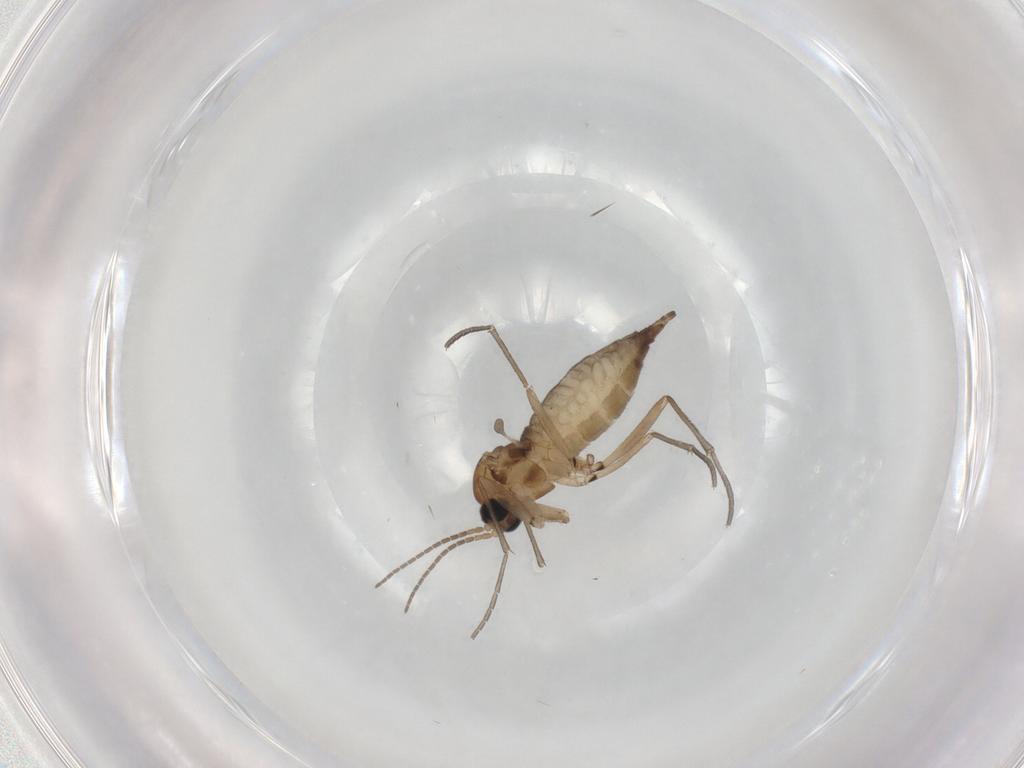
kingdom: Animalia
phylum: Arthropoda
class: Insecta
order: Diptera
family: Sciaridae
